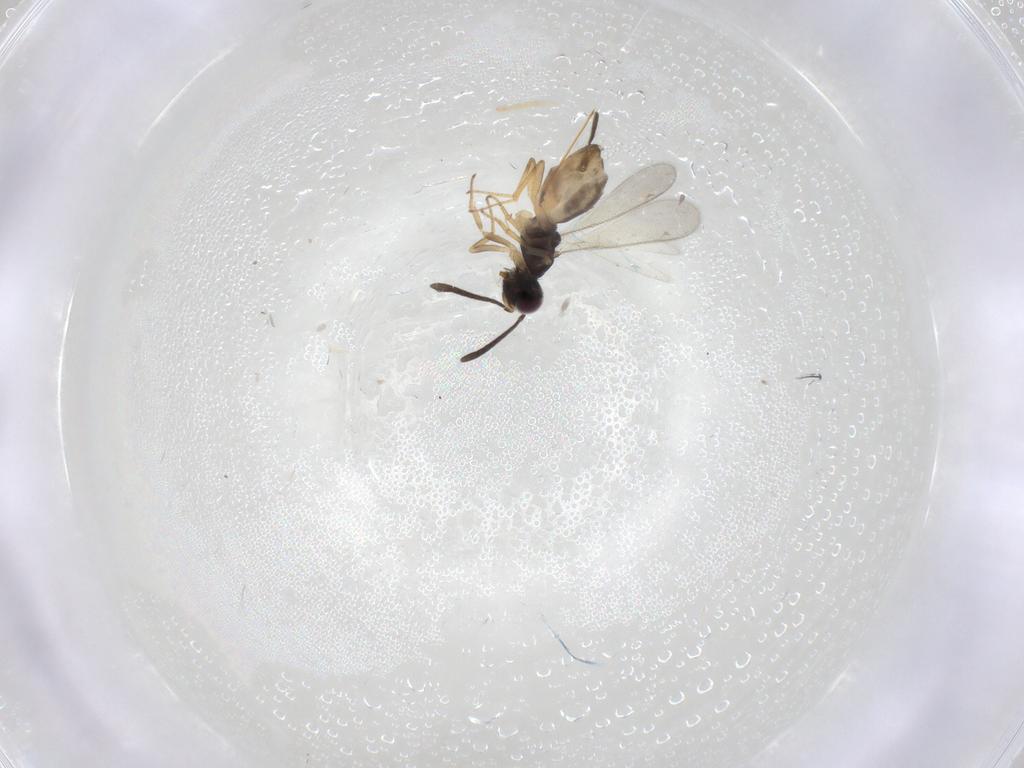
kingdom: Animalia
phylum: Arthropoda
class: Insecta
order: Hymenoptera
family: Eupelmidae
